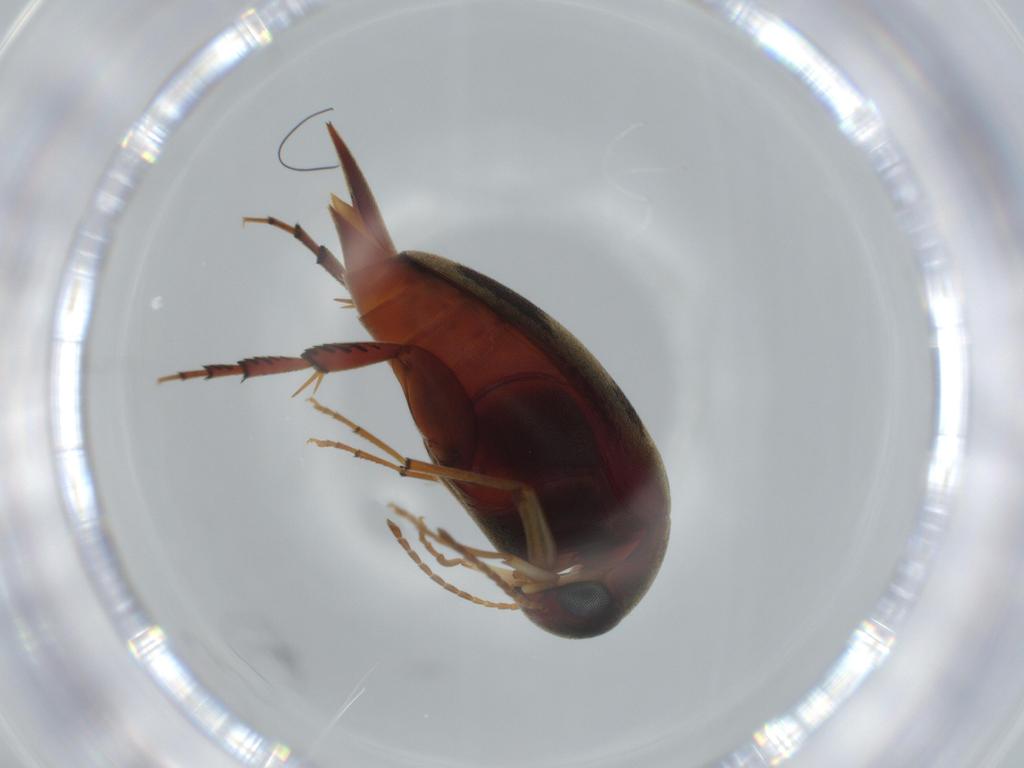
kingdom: Animalia
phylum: Arthropoda
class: Insecta
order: Coleoptera
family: Mordellidae
